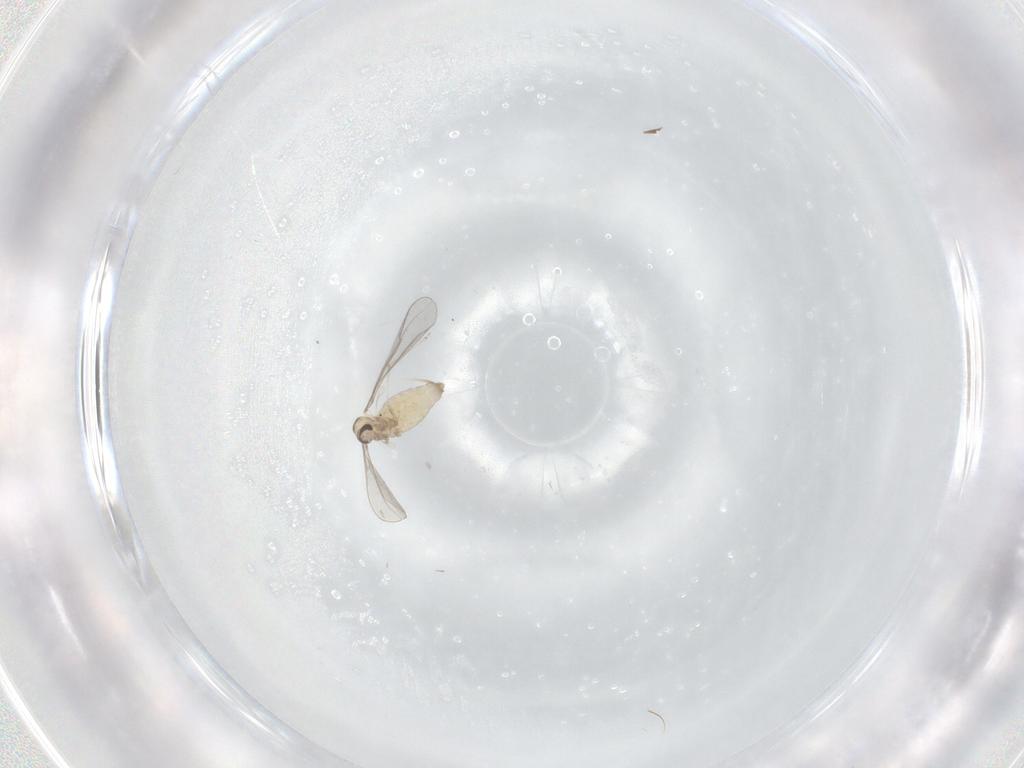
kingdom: Animalia
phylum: Arthropoda
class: Insecta
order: Diptera
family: Cecidomyiidae
